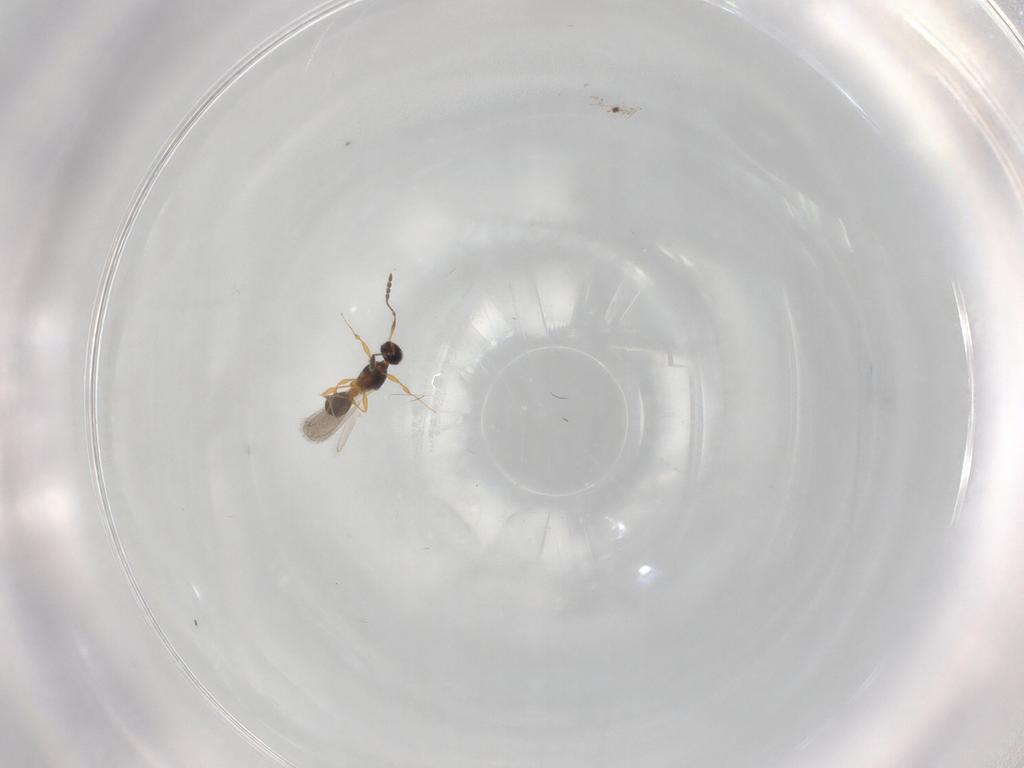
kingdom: Animalia
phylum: Arthropoda
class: Insecta
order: Hymenoptera
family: Platygastridae
